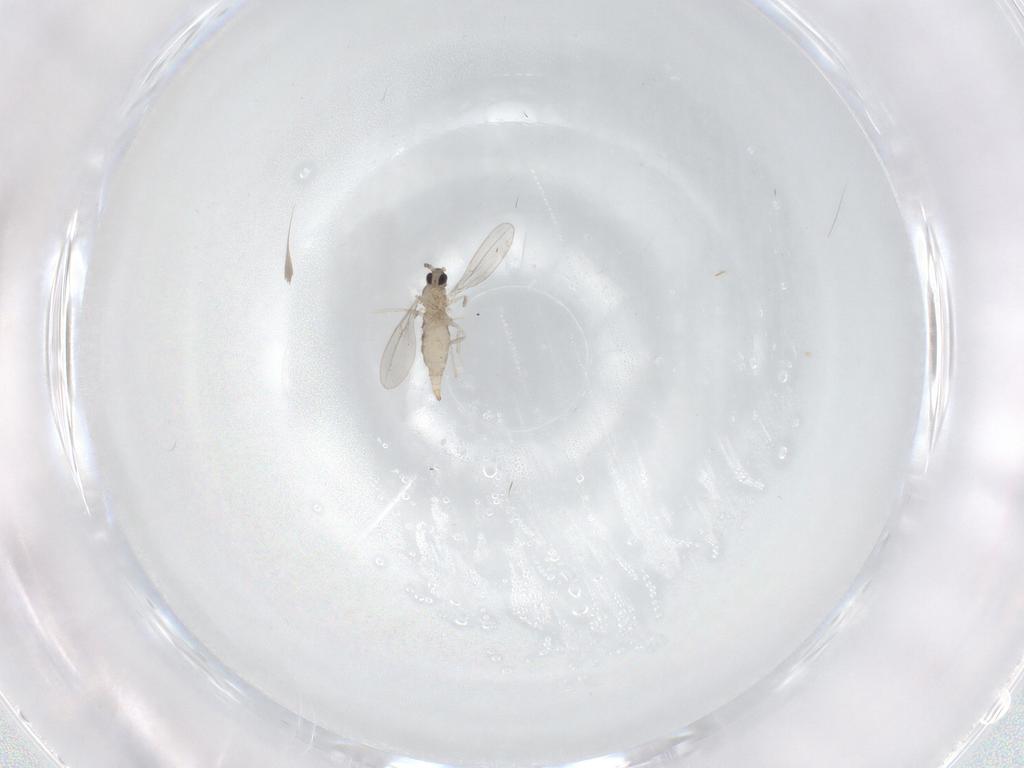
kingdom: Animalia
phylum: Arthropoda
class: Insecta
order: Diptera
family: Cecidomyiidae
